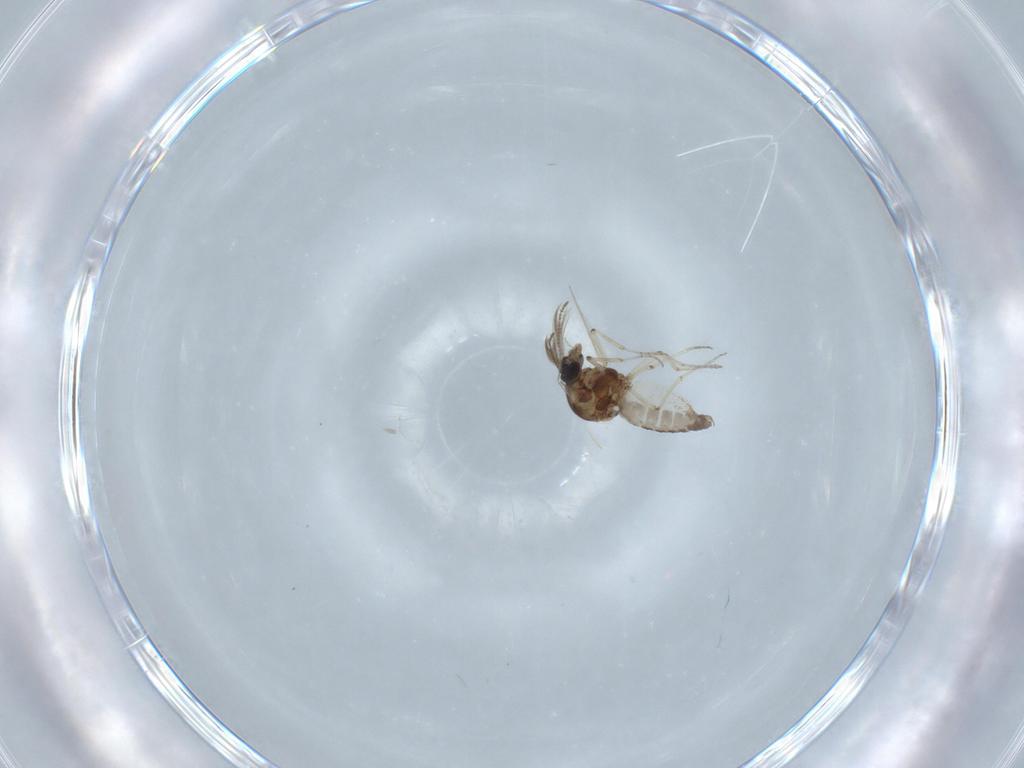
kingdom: Animalia
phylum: Arthropoda
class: Insecta
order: Diptera
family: Ceratopogonidae
